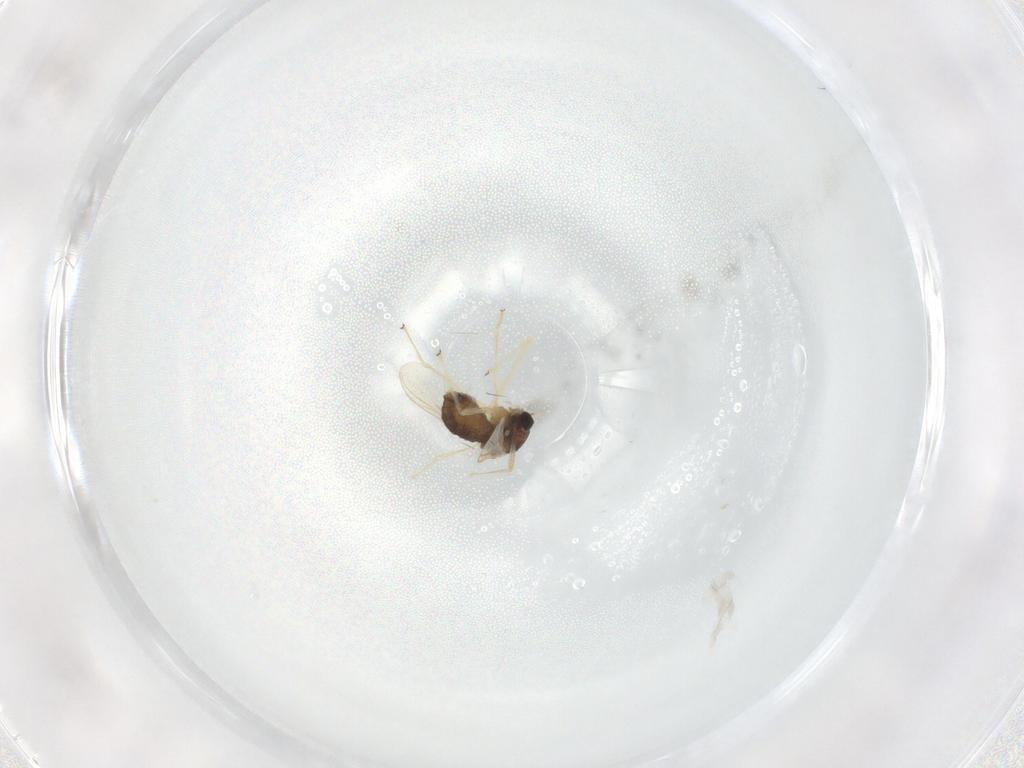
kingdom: Animalia
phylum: Arthropoda
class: Insecta
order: Diptera
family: Chironomidae
